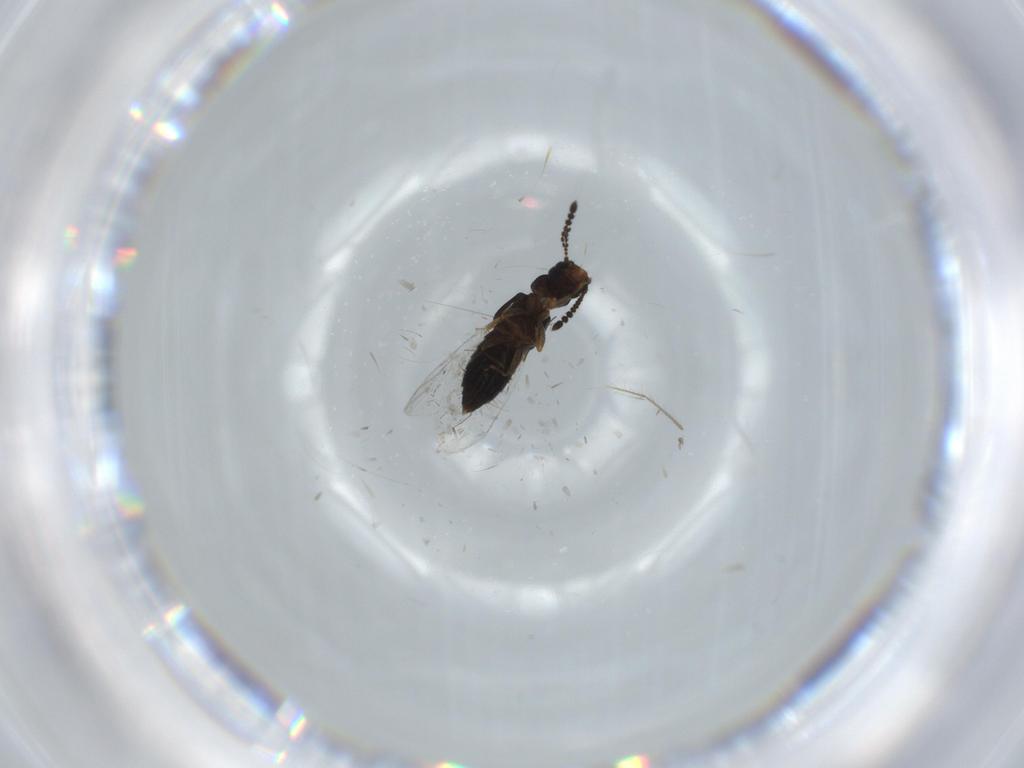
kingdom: Animalia
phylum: Arthropoda
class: Insecta
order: Coleoptera
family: Staphylinidae
